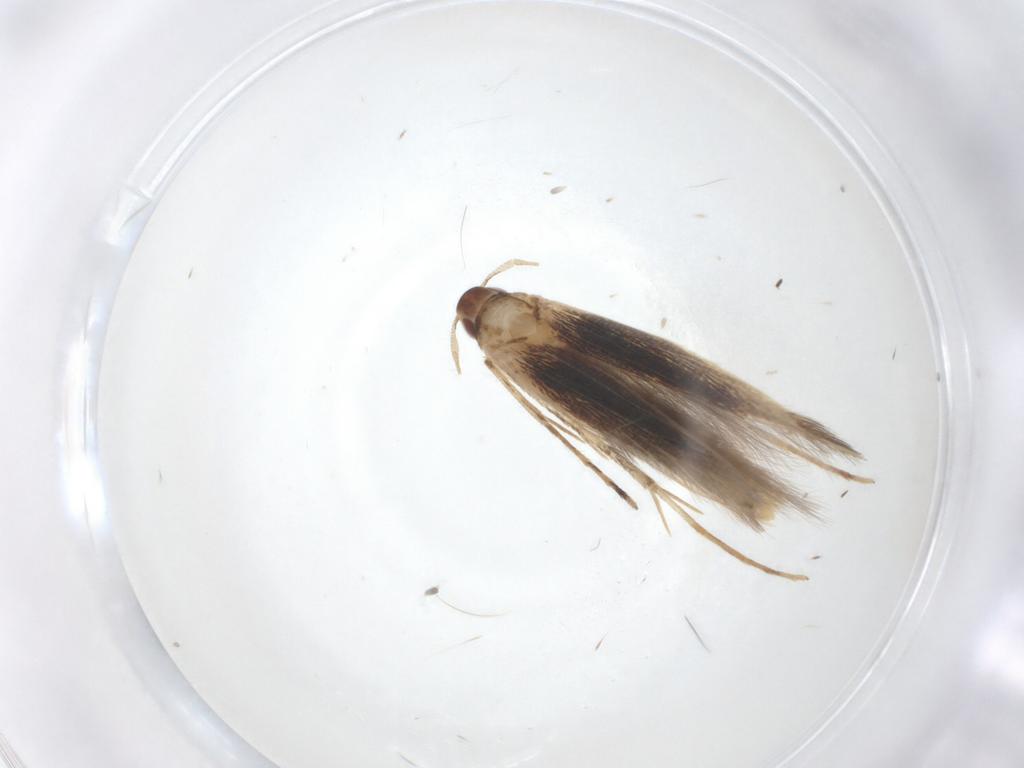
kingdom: Animalia
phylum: Arthropoda
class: Insecta
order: Lepidoptera
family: Cosmopterigidae
